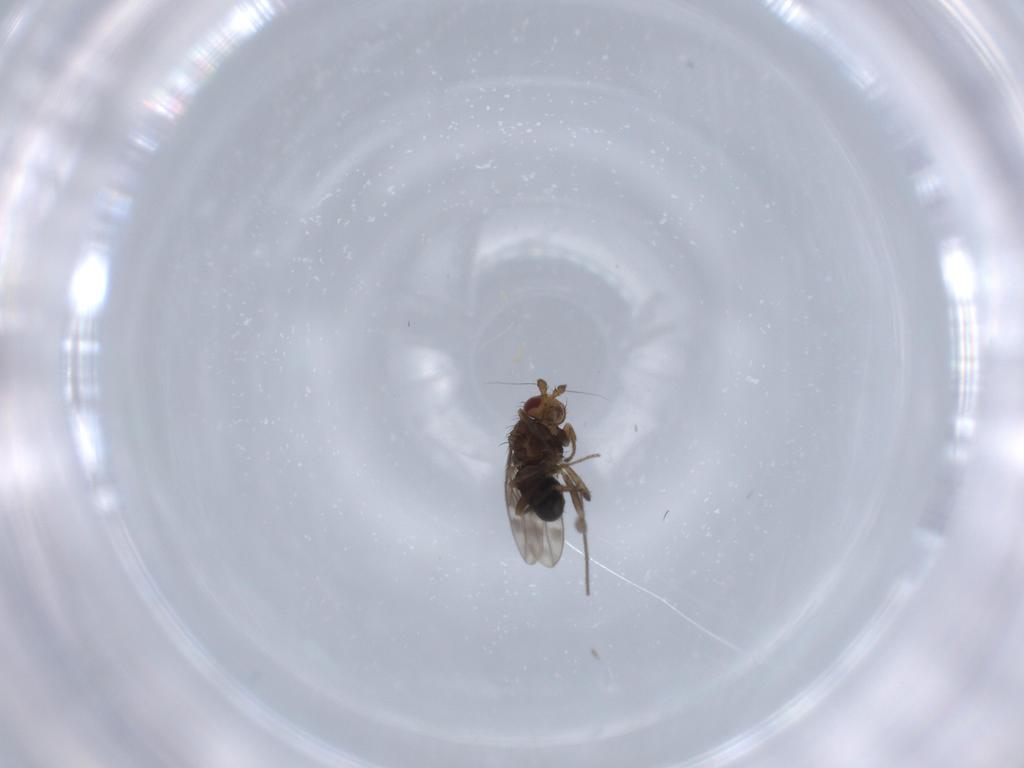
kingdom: Animalia
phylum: Arthropoda
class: Insecta
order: Diptera
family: Sphaeroceridae
